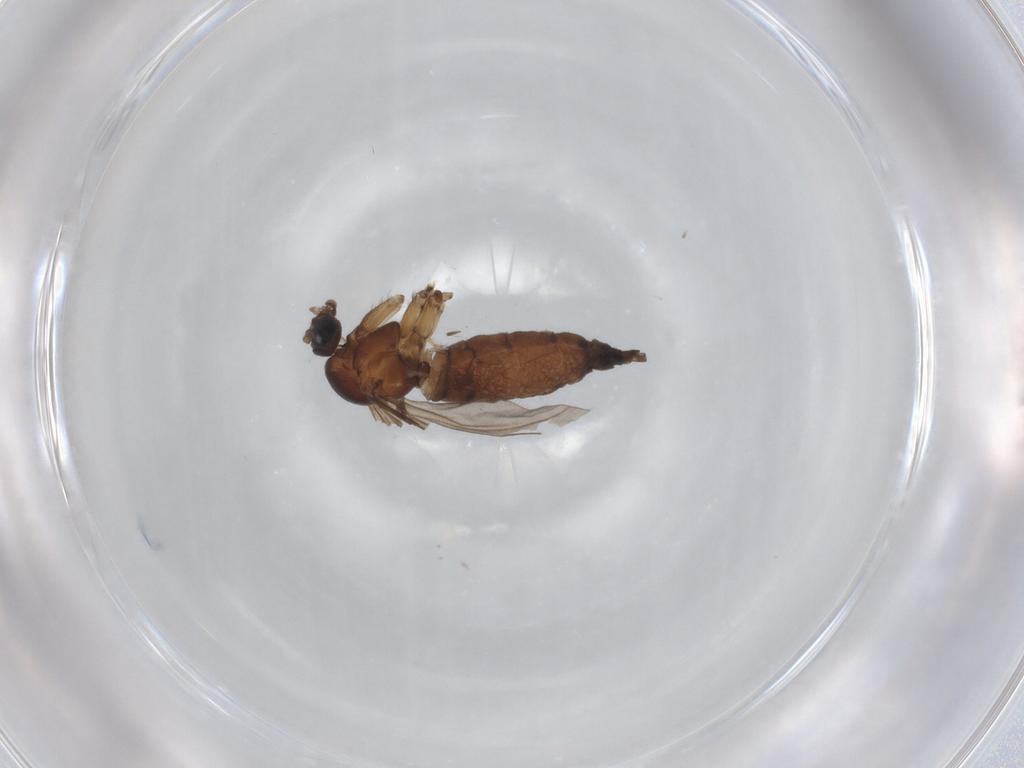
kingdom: Animalia
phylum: Arthropoda
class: Insecta
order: Diptera
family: Sciaridae
